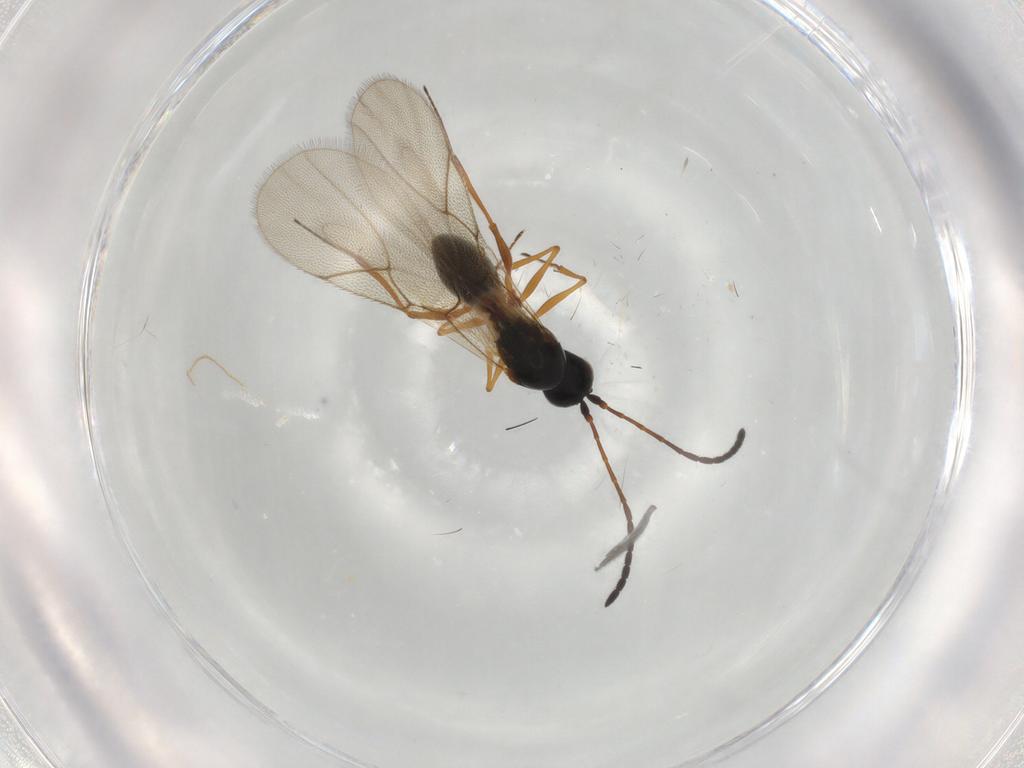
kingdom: Animalia
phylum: Arthropoda
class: Insecta
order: Hymenoptera
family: Figitidae
